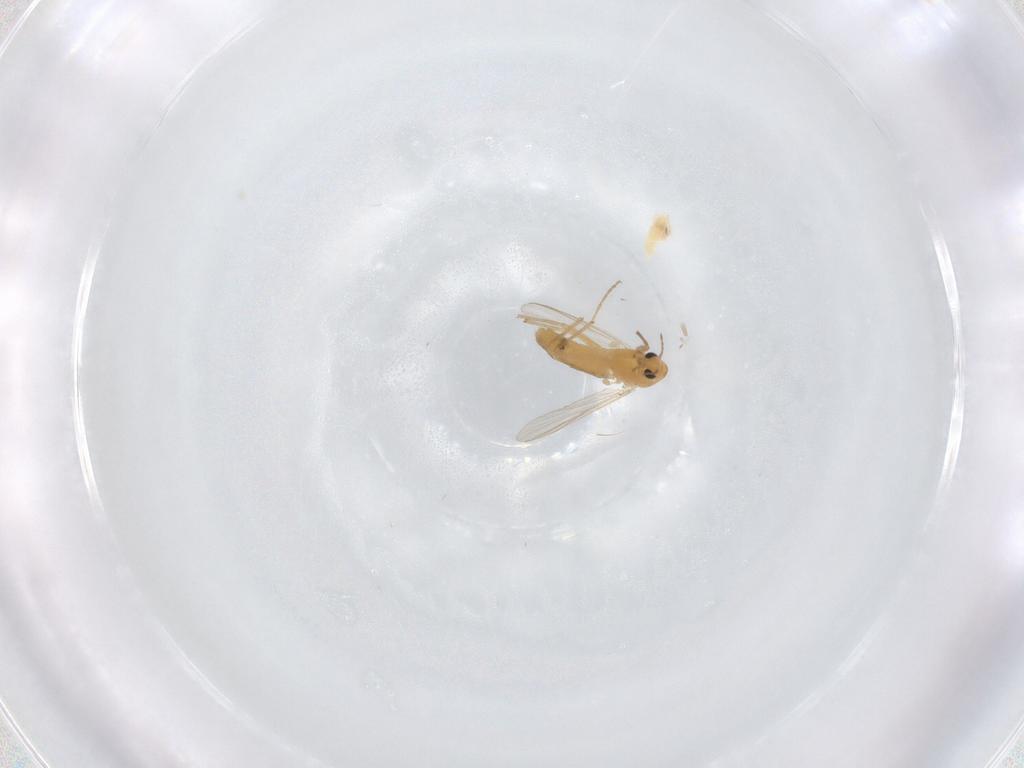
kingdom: Animalia
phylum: Arthropoda
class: Insecta
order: Diptera
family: Chironomidae
